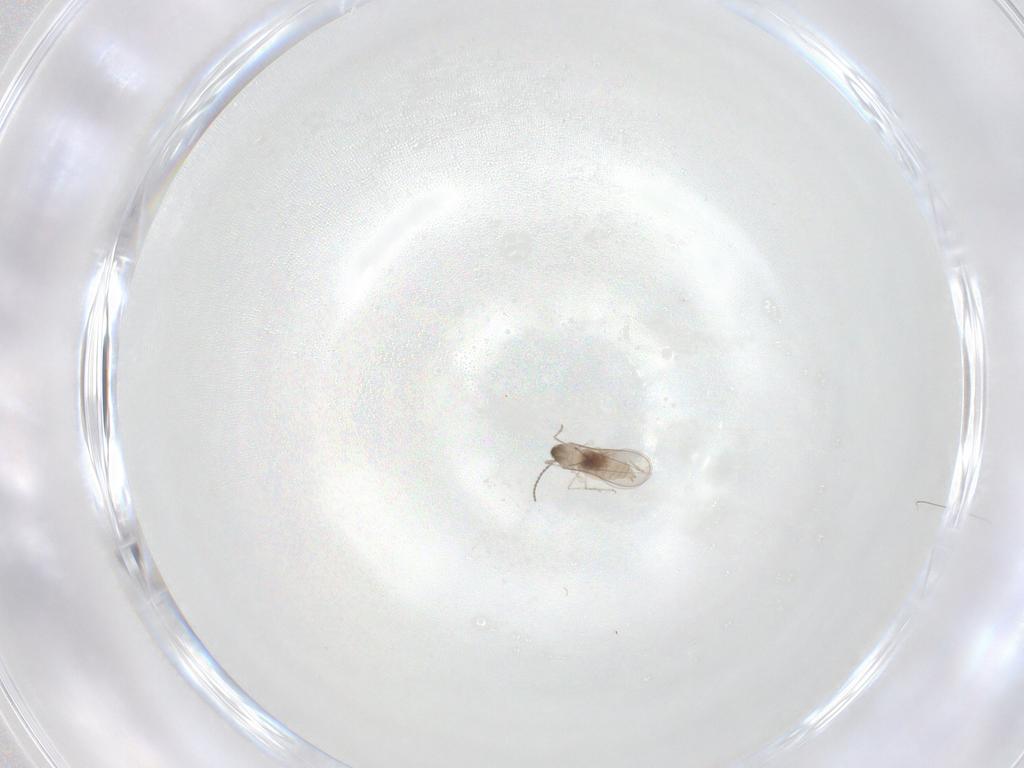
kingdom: Animalia
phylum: Arthropoda
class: Insecta
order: Diptera
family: Cecidomyiidae
